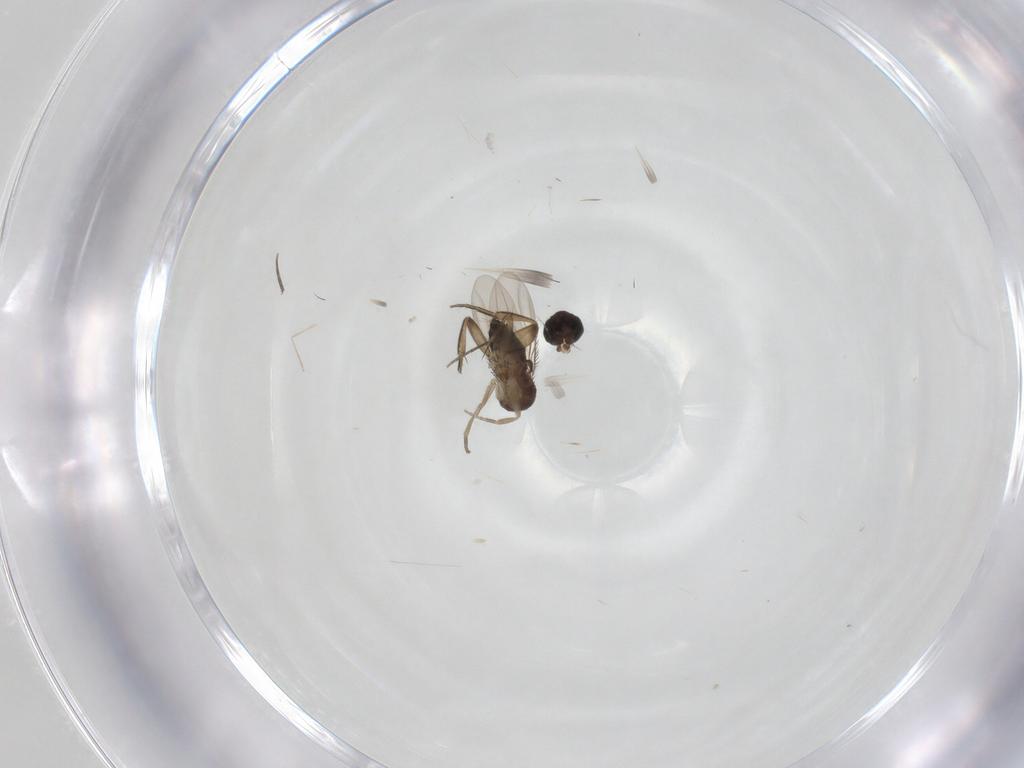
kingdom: Animalia
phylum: Arthropoda
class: Insecta
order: Diptera
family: Phoridae
